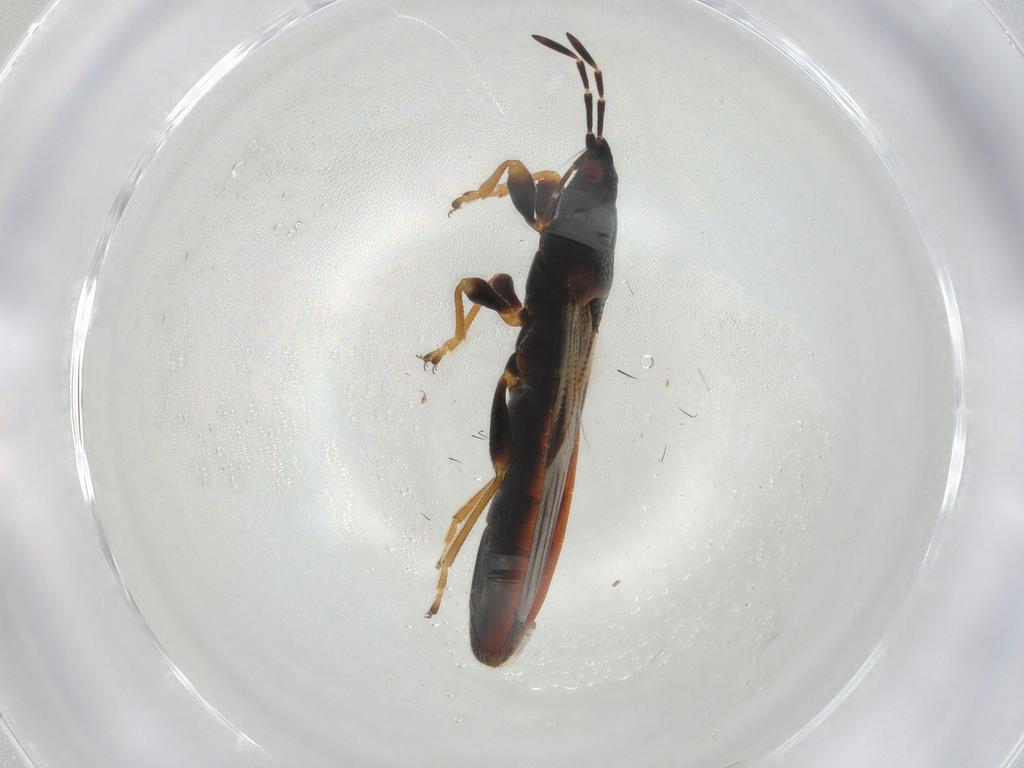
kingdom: Animalia
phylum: Arthropoda
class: Insecta
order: Hemiptera
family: Blissidae
